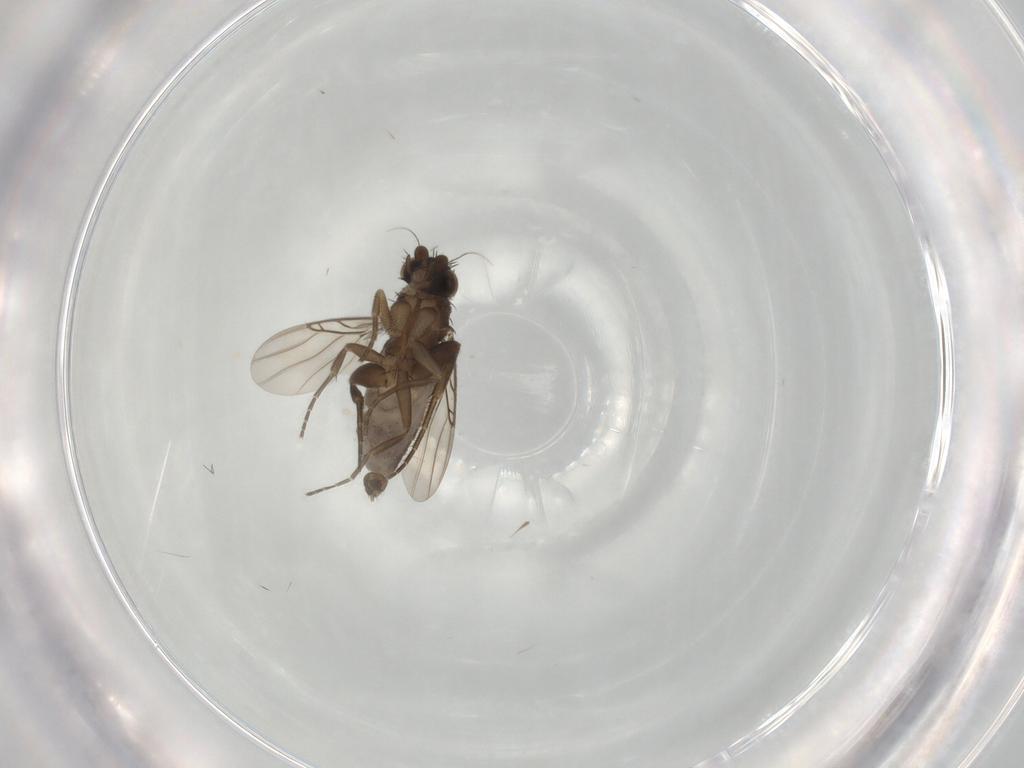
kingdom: Animalia
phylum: Arthropoda
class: Insecta
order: Diptera
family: Phoridae
